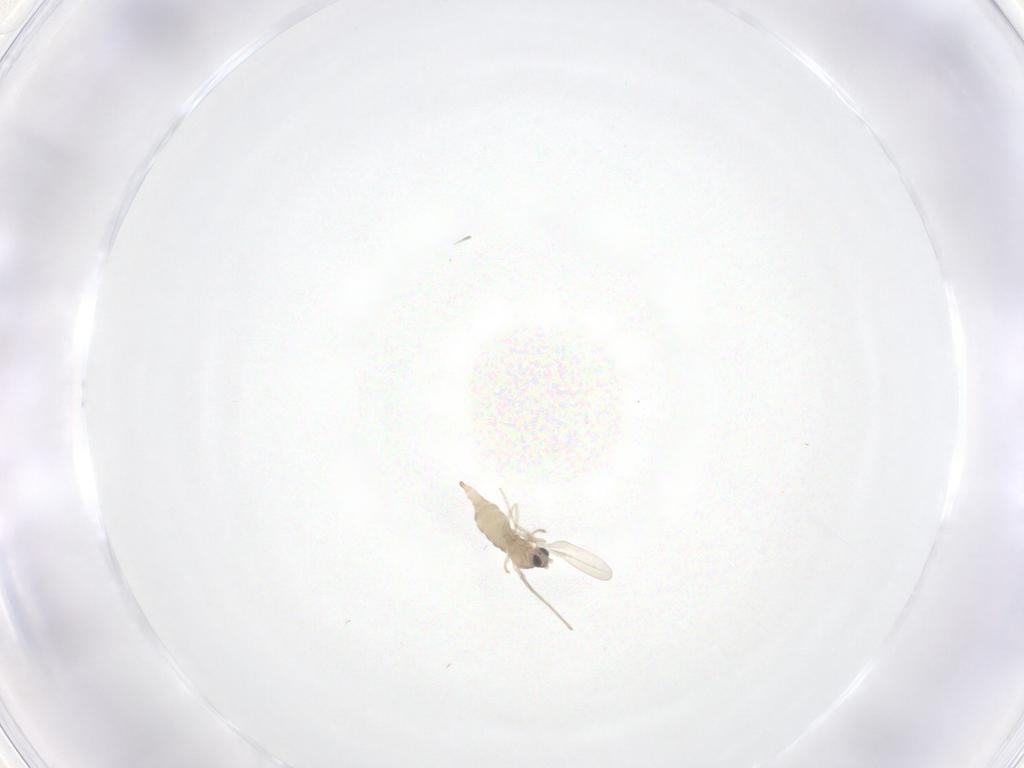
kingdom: Animalia
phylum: Arthropoda
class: Insecta
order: Diptera
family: Cecidomyiidae
